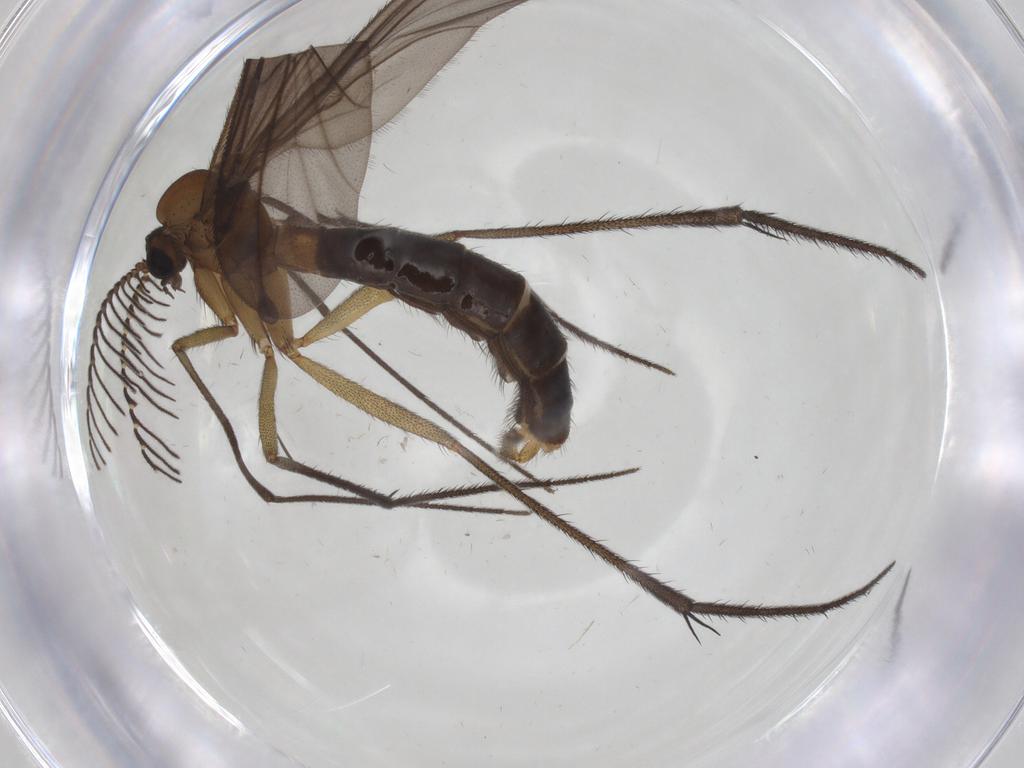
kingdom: Animalia
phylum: Arthropoda
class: Insecta
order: Diptera
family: Ditomyiidae
